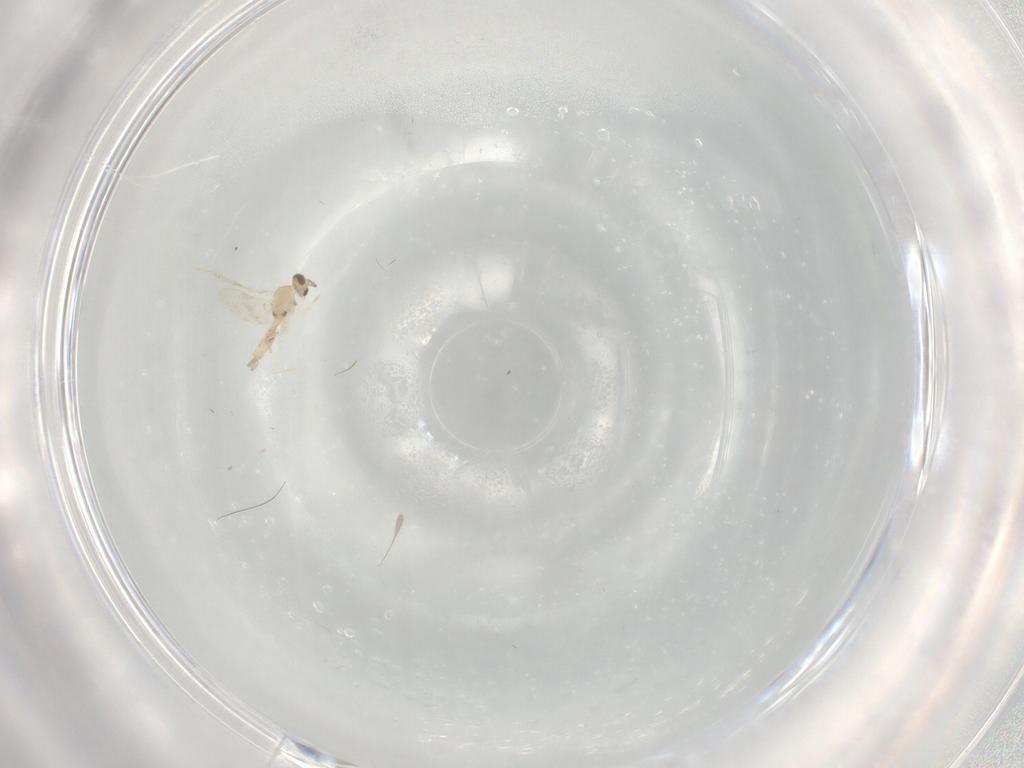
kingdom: Animalia
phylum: Arthropoda
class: Insecta
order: Diptera
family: Cecidomyiidae
